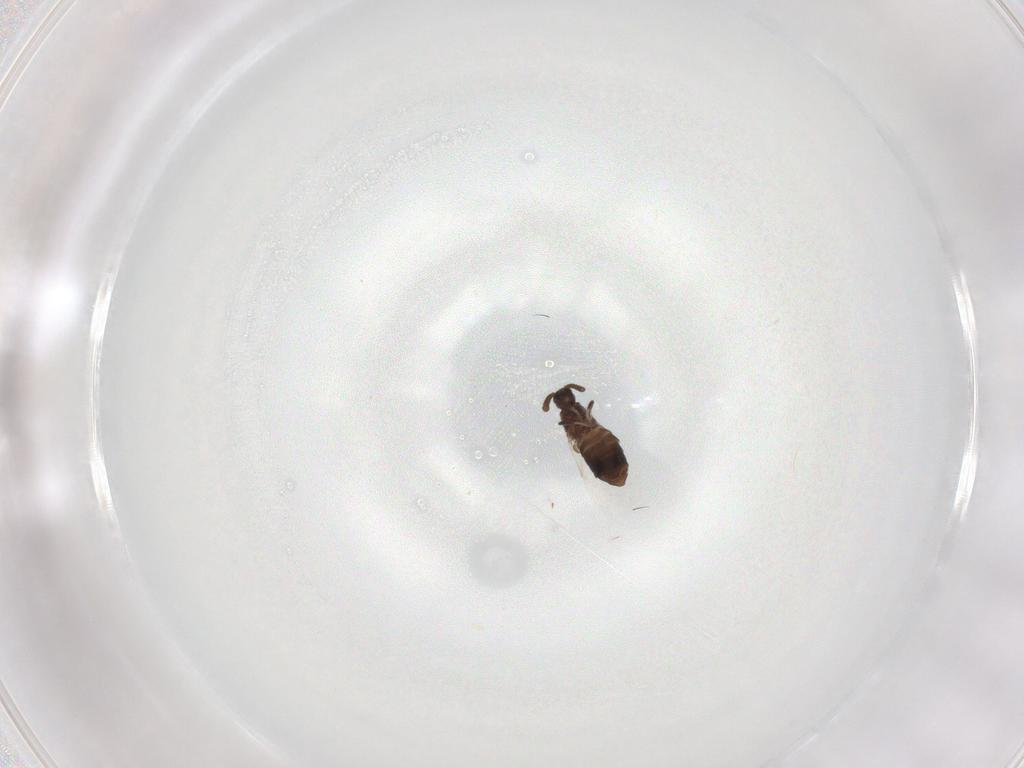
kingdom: Animalia
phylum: Arthropoda
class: Insecta
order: Diptera
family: Scatopsidae
